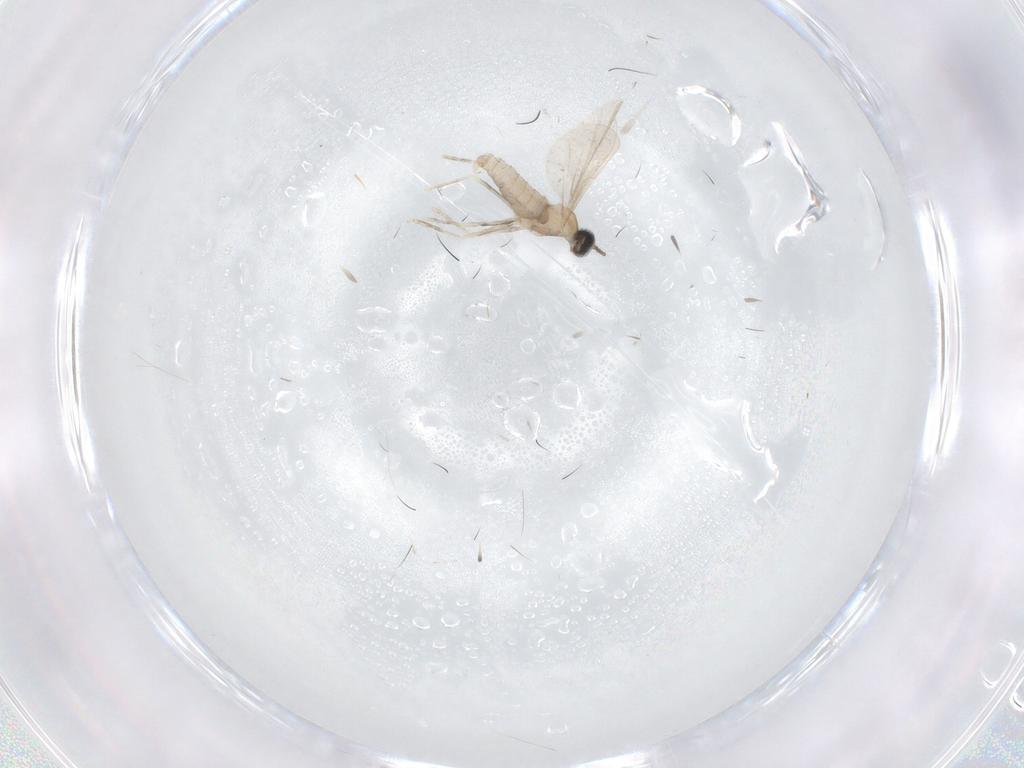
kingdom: Animalia
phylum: Arthropoda
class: Insecta
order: Diptera
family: Cecidomyiidae
